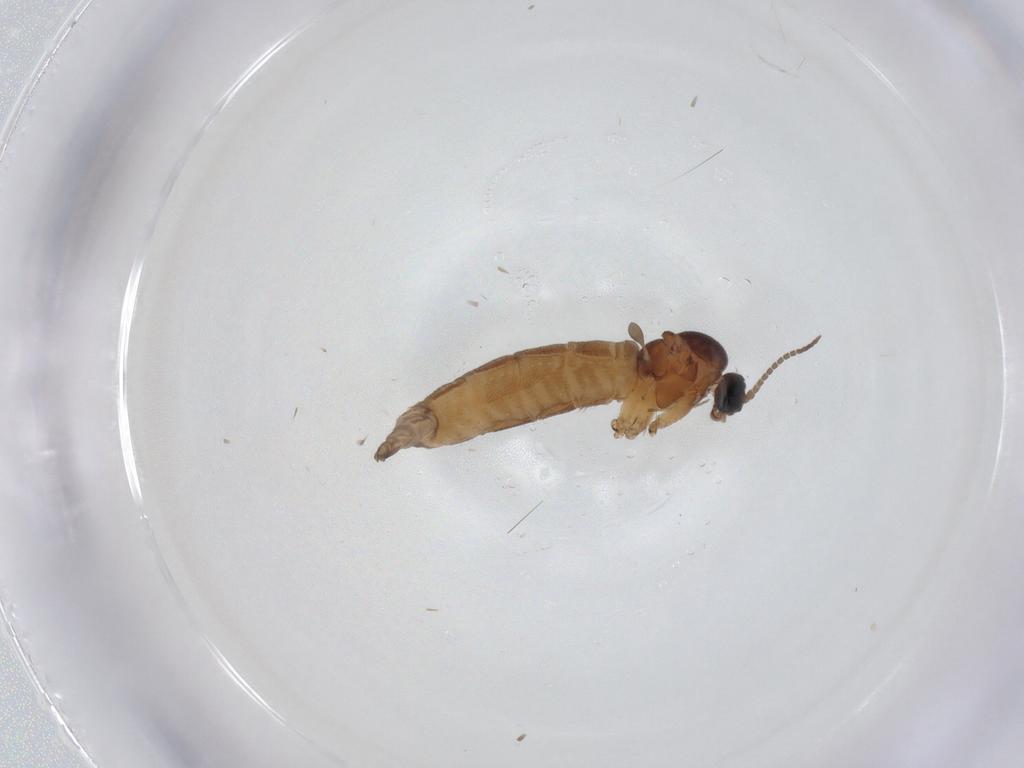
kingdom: Animalia
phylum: Arthropoda
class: Insecta
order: Diptera
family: Sciaridae
